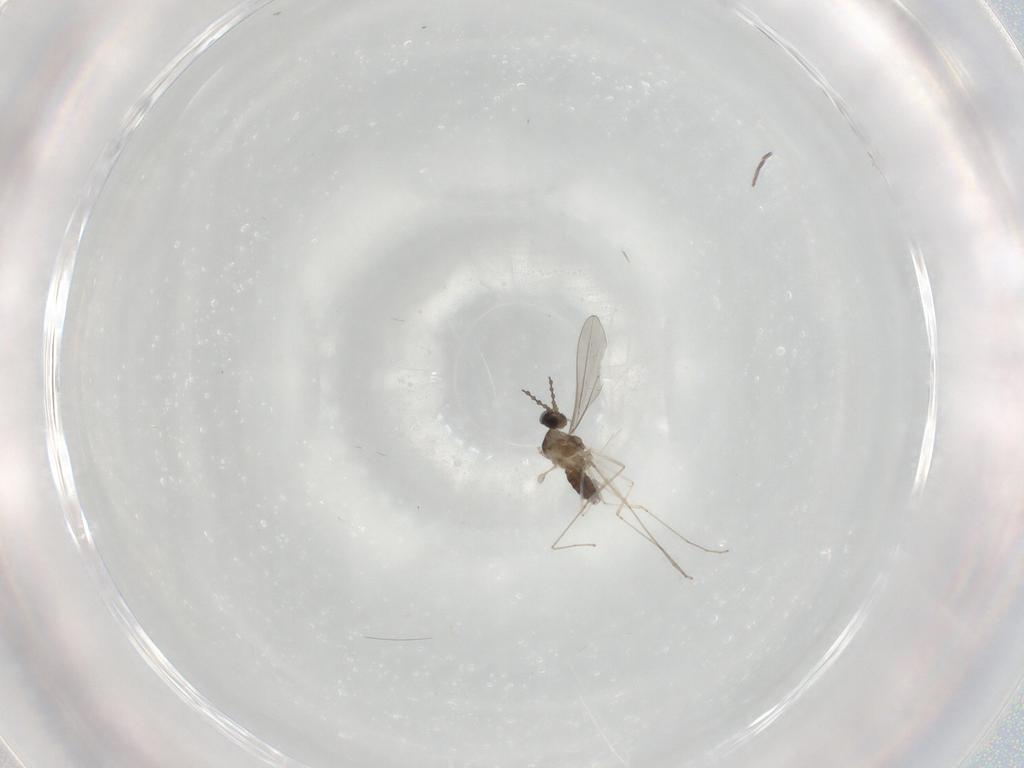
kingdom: Animalia
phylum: Arthropoda
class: Insecta
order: Diptera
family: Cecidomyiidae
